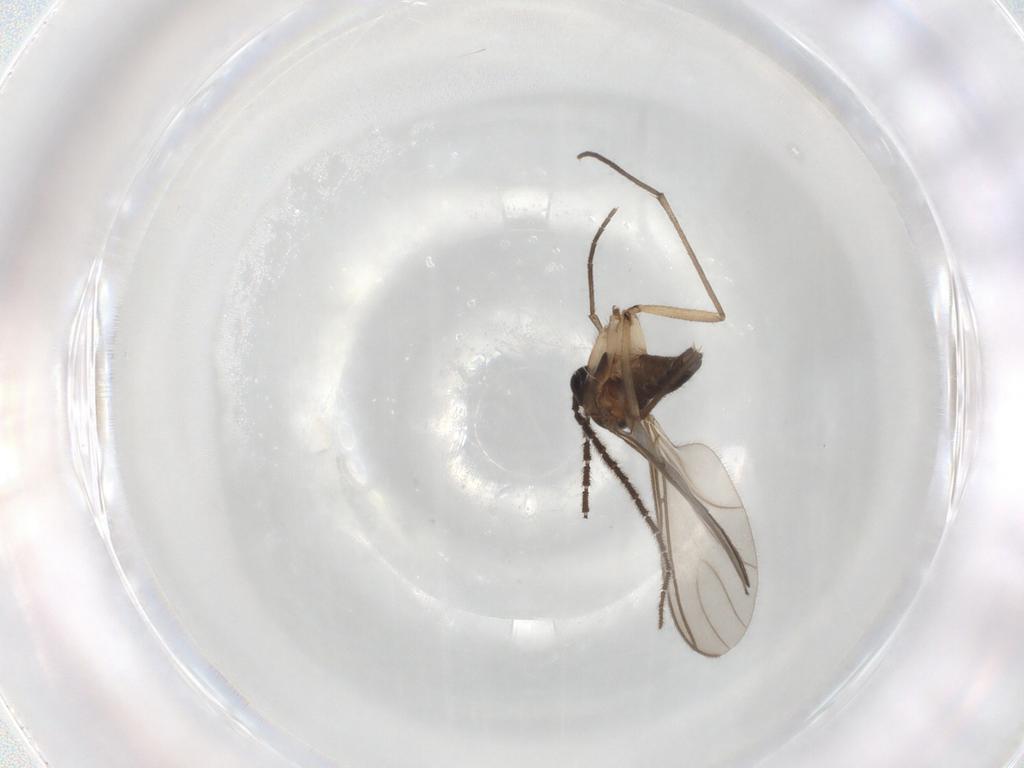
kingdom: Animalia
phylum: Arthropoda
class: Insecta
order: Diptera
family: Sciaridae
